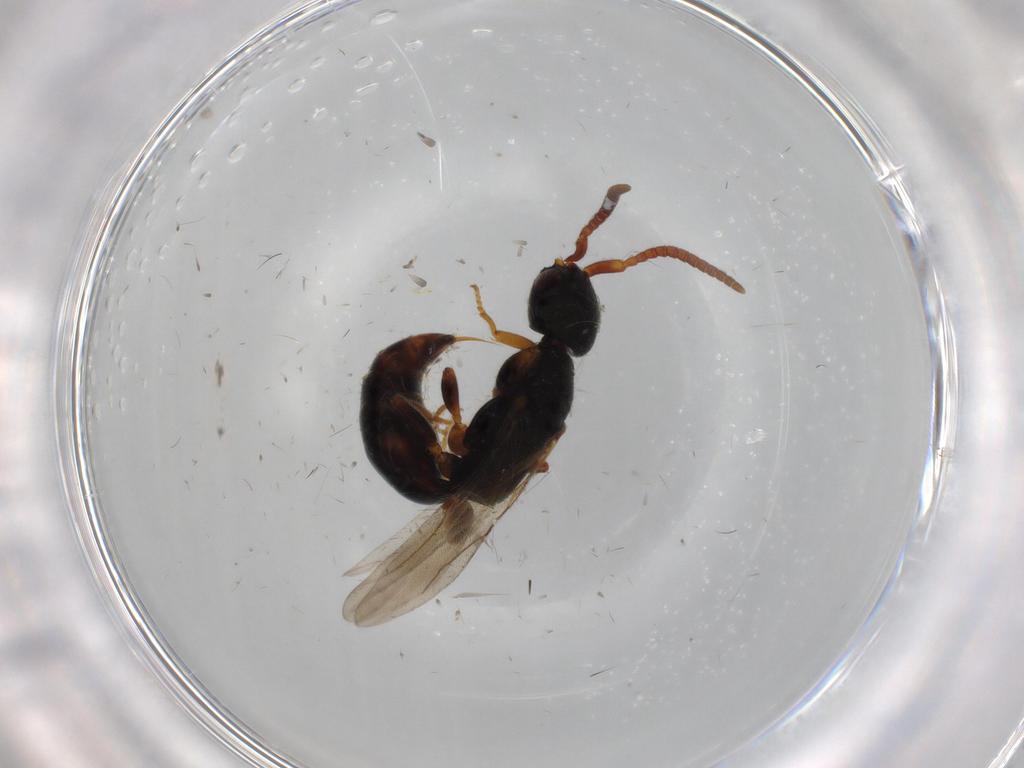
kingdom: Animalia
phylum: Arthropoda
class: Insecta
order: Hymenoptera
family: Bethylidae
